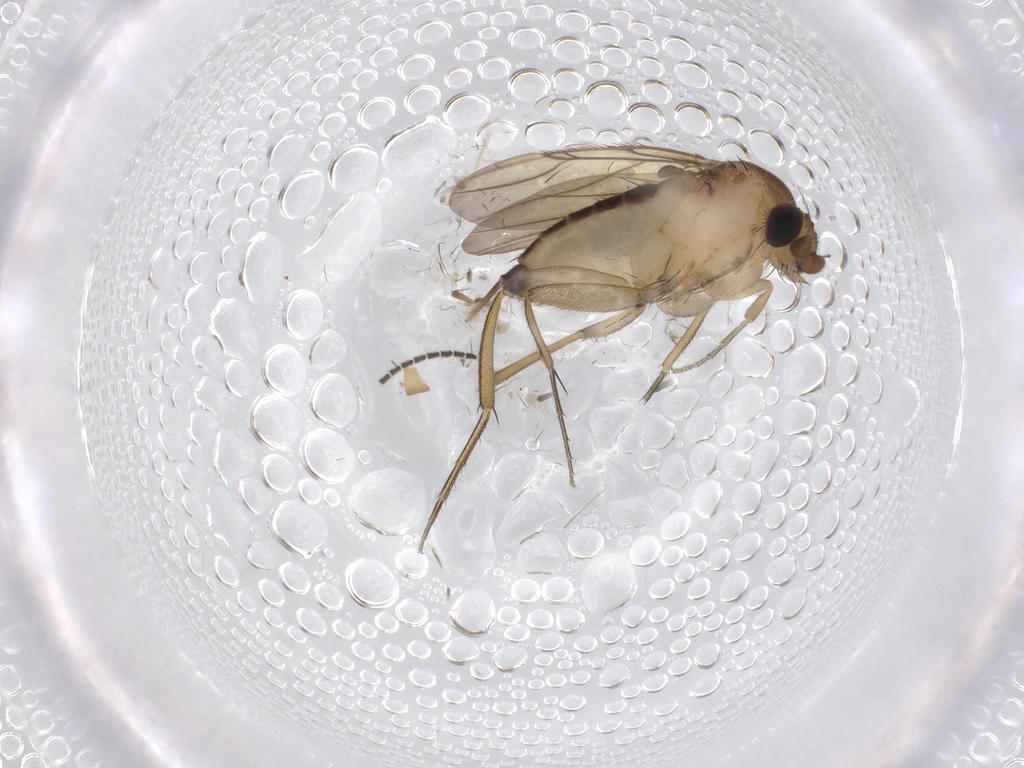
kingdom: Animalia
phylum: Arthropoda
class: Insecta
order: Diptera
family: Phoridae
